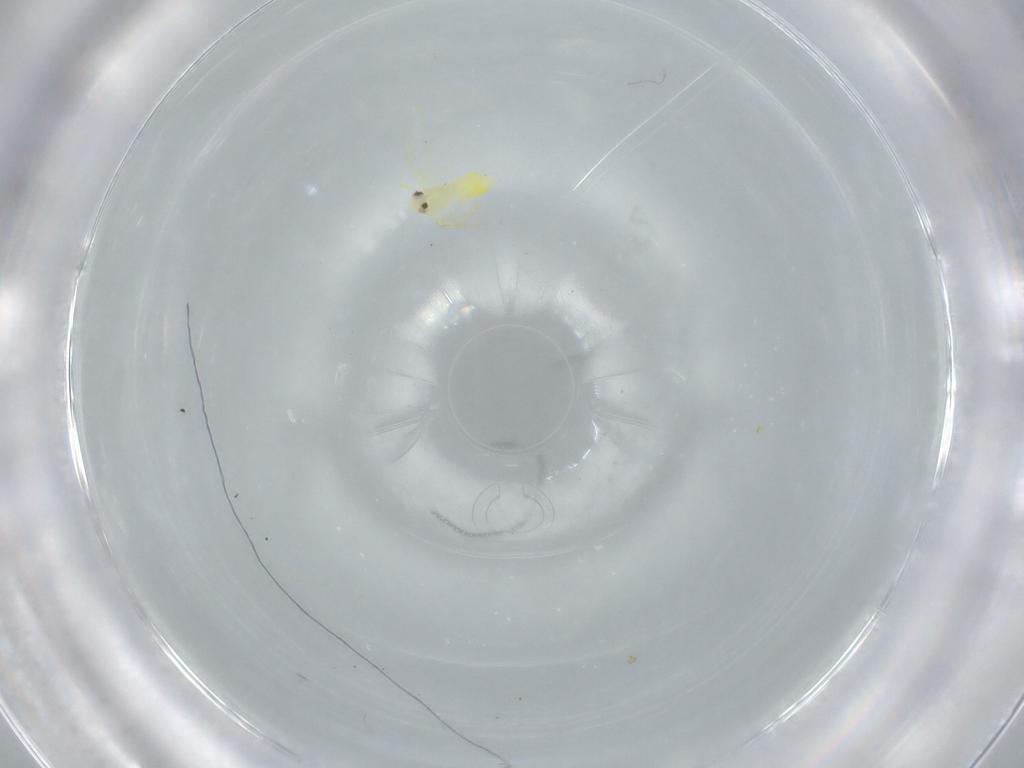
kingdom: Animalia
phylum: Arthropoda
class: Insecta
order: Hemiptera
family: Aleyrodidae
